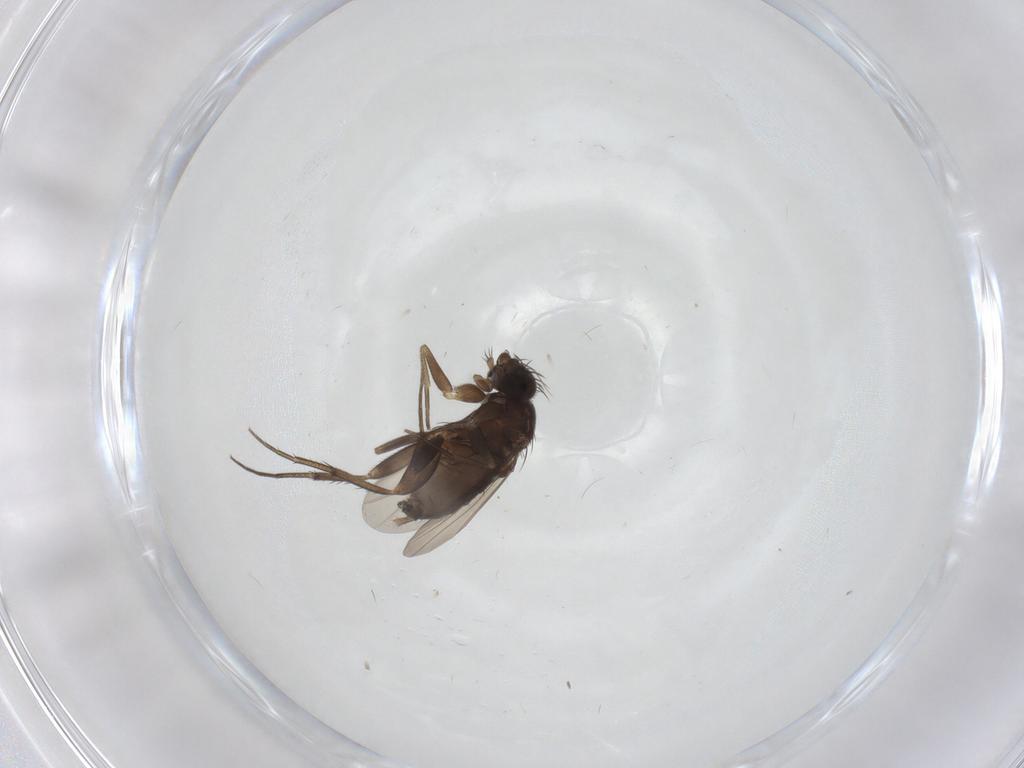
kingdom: Animalia
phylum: Arthropoda
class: Insecta
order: Diptera
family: Phoridae
